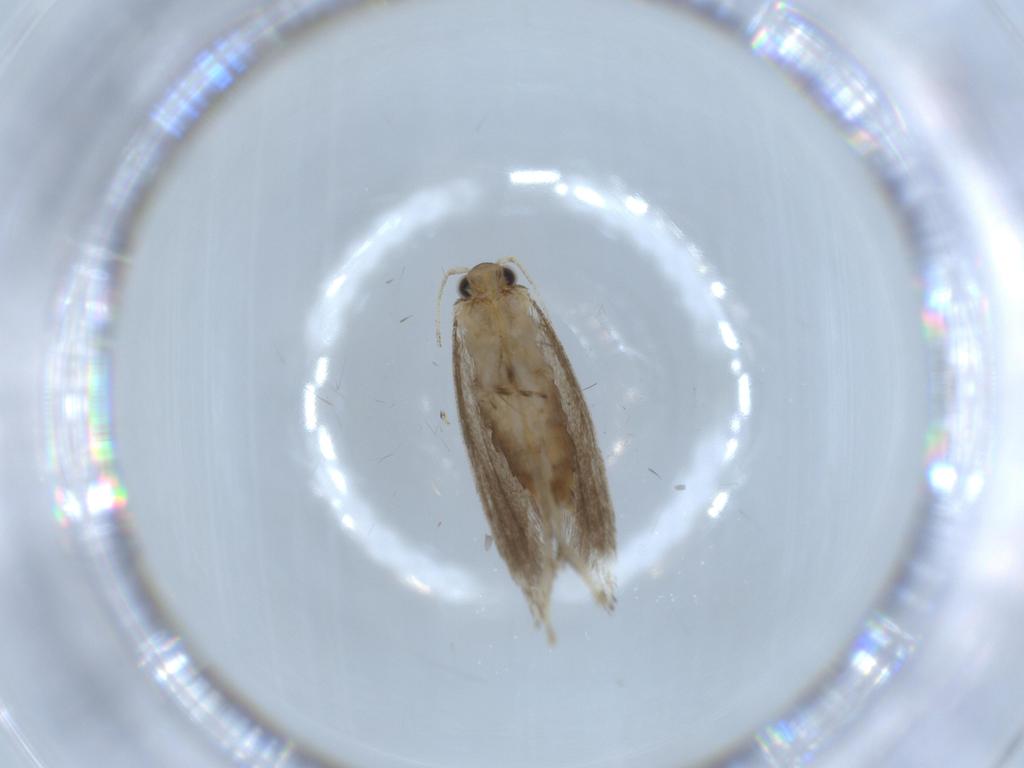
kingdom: Animalia
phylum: Arthropoda
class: Insecta
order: Lepidoptera
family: Tineidae
